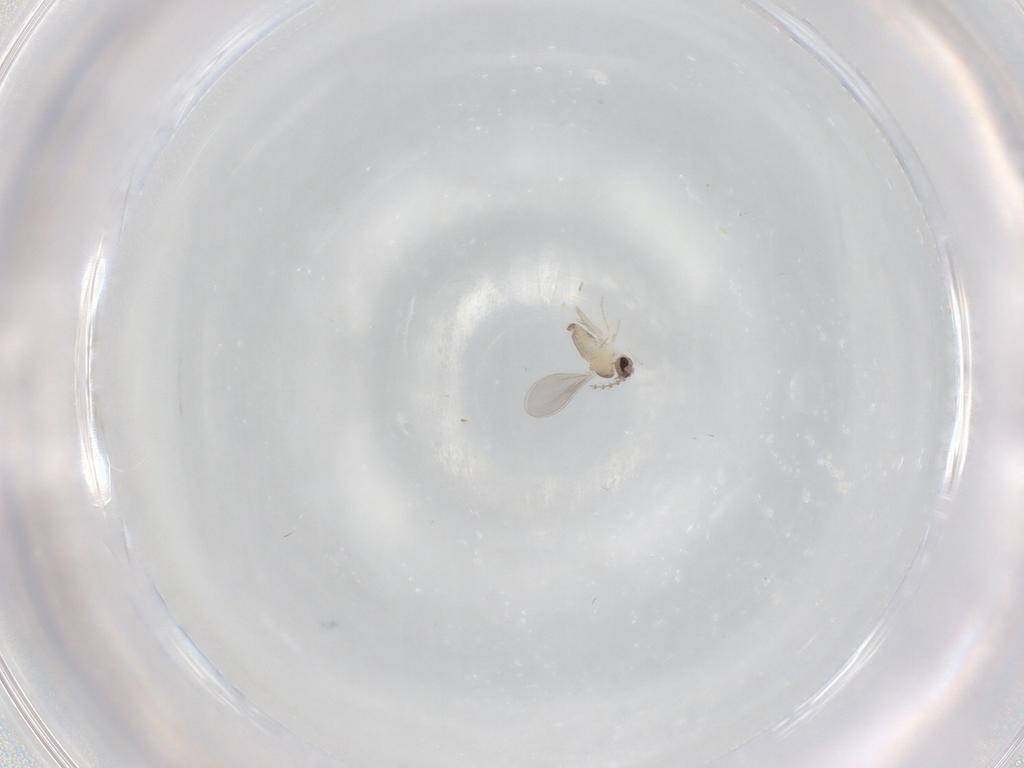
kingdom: Animalia
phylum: Arthropoda
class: Insecta
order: Diptera
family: Cecidomyiidae
